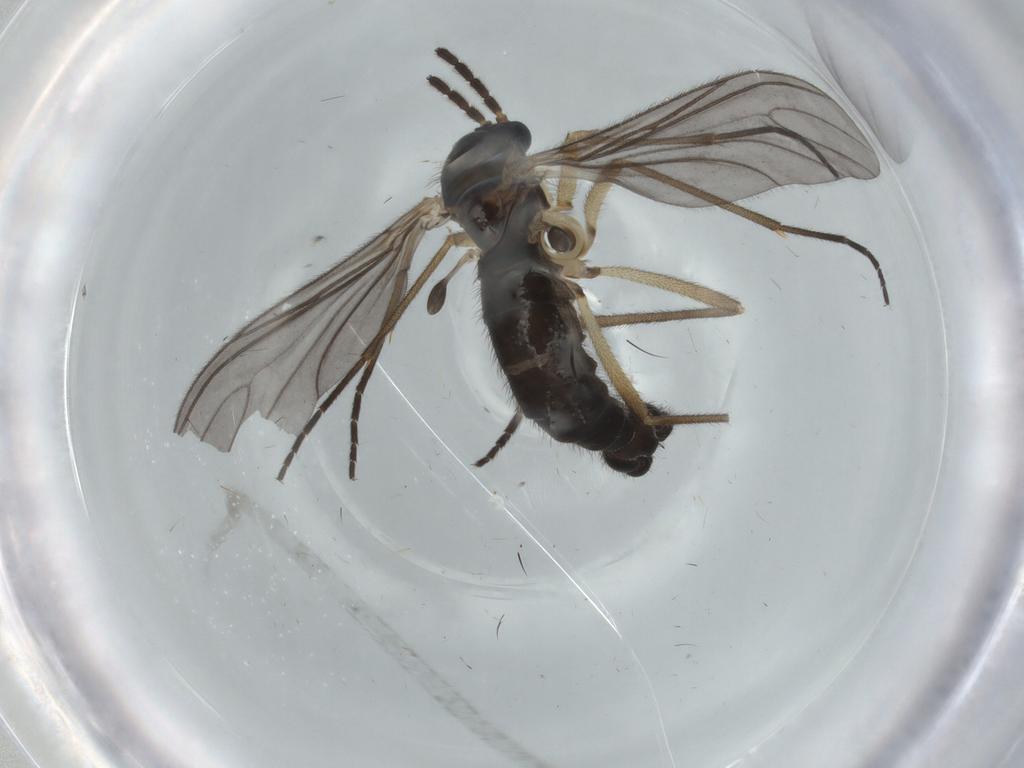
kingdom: Animalia
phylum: Arthropoda
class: Insecta
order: Diptera
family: Sciaridae
